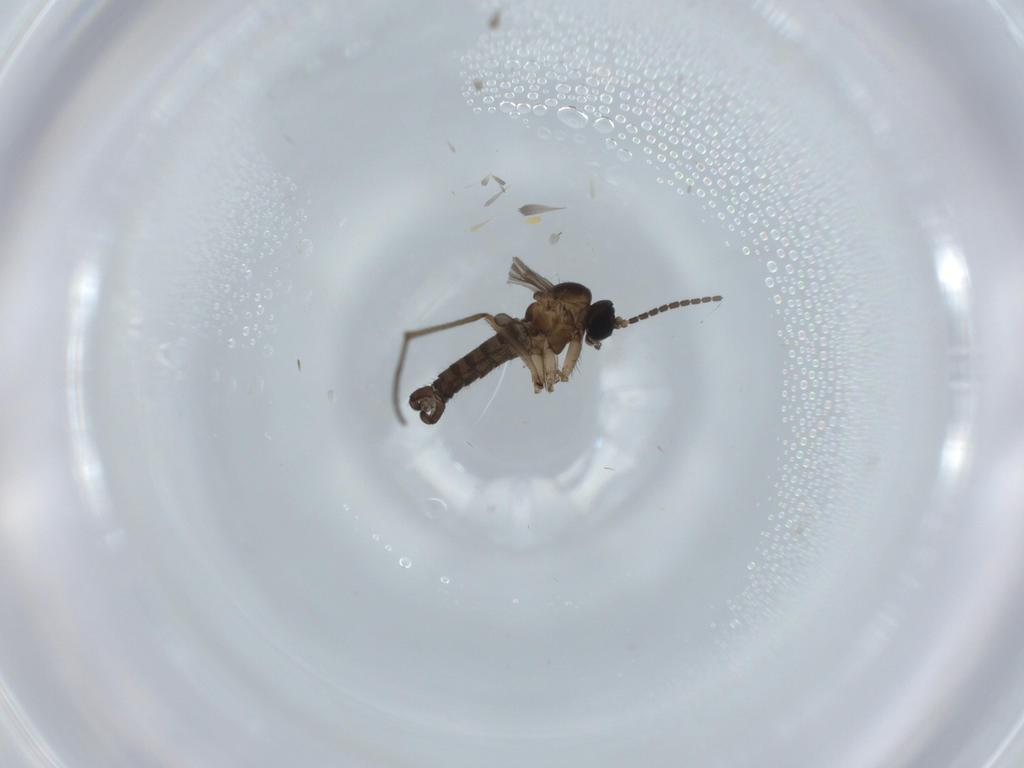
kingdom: Animalia
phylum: Arthropoda
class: Insecta
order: Diptera
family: Sciaridae
